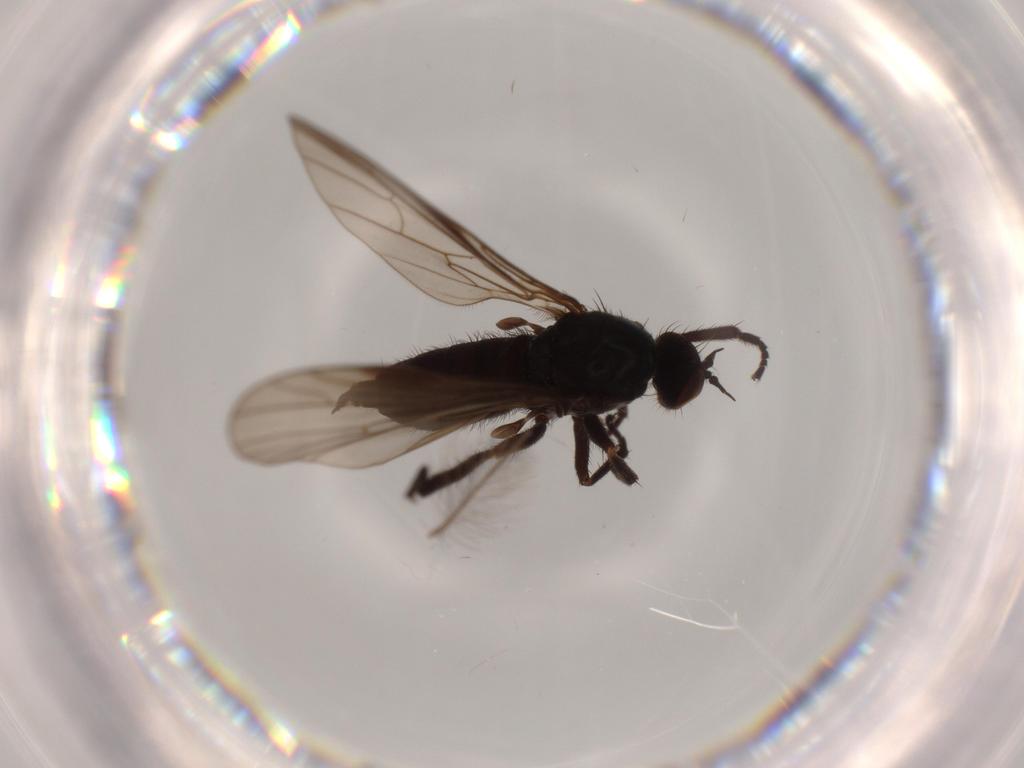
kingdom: Animalia
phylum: Arthropoda
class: Insecta
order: Diptera
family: Empididae
